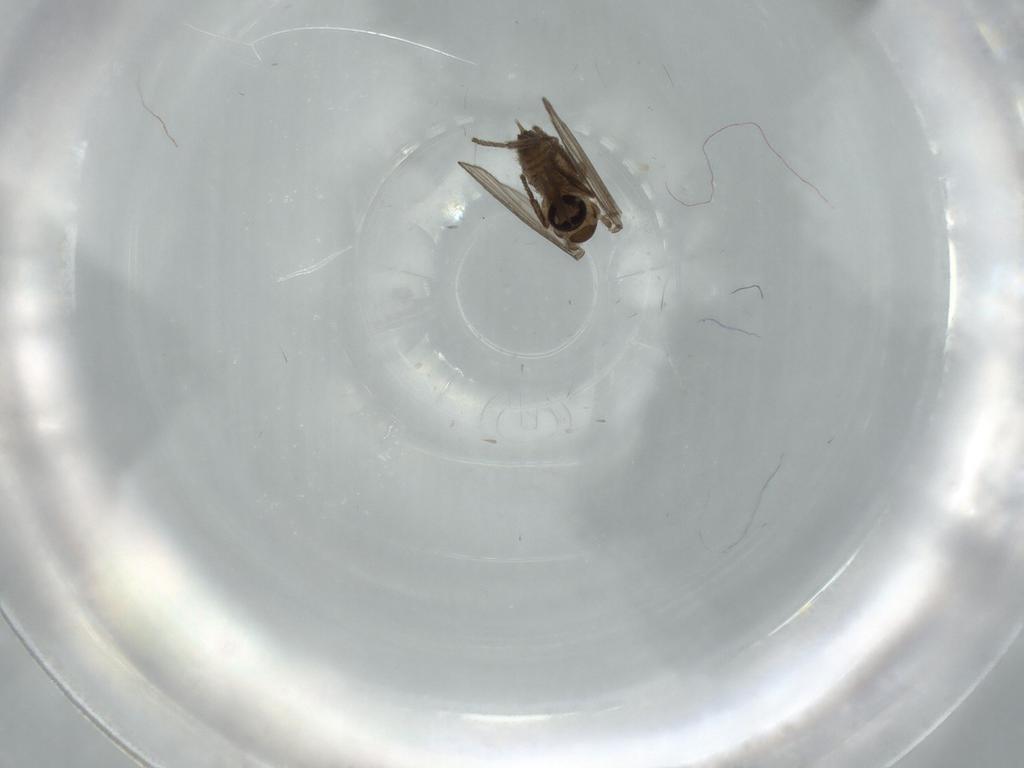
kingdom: Animalia
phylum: Arthropoda
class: Insecta
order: Diptera
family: Psychodidae
